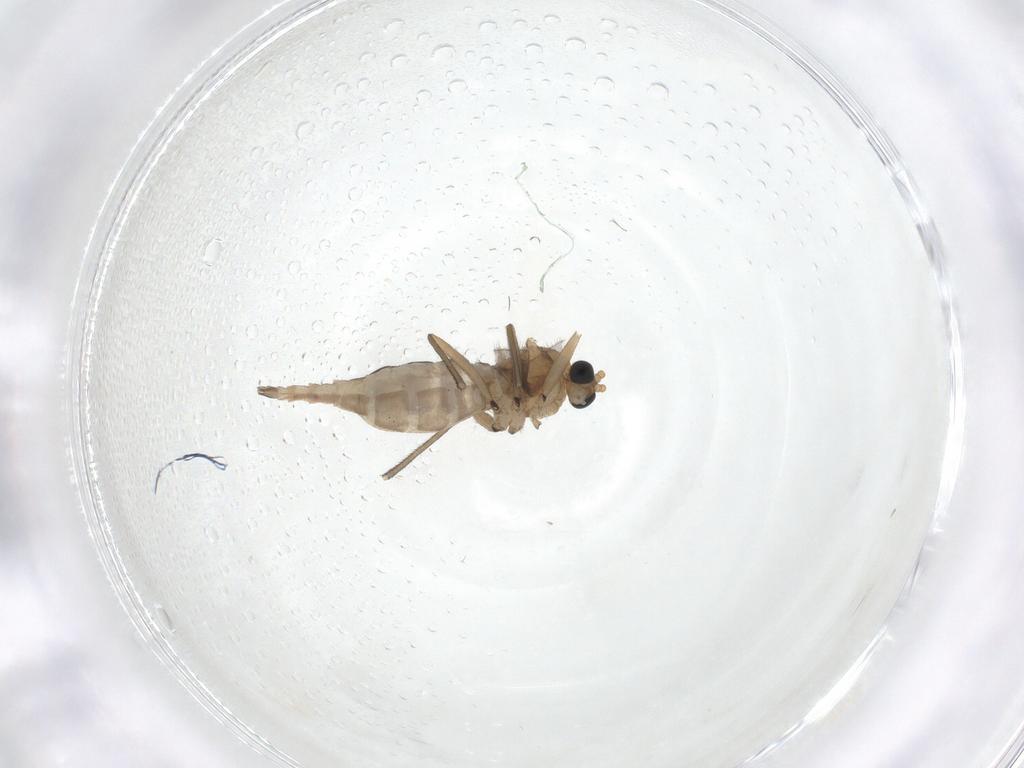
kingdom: Animalia
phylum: Arthropoda
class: Insecta
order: Diptera
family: Sciaridae
